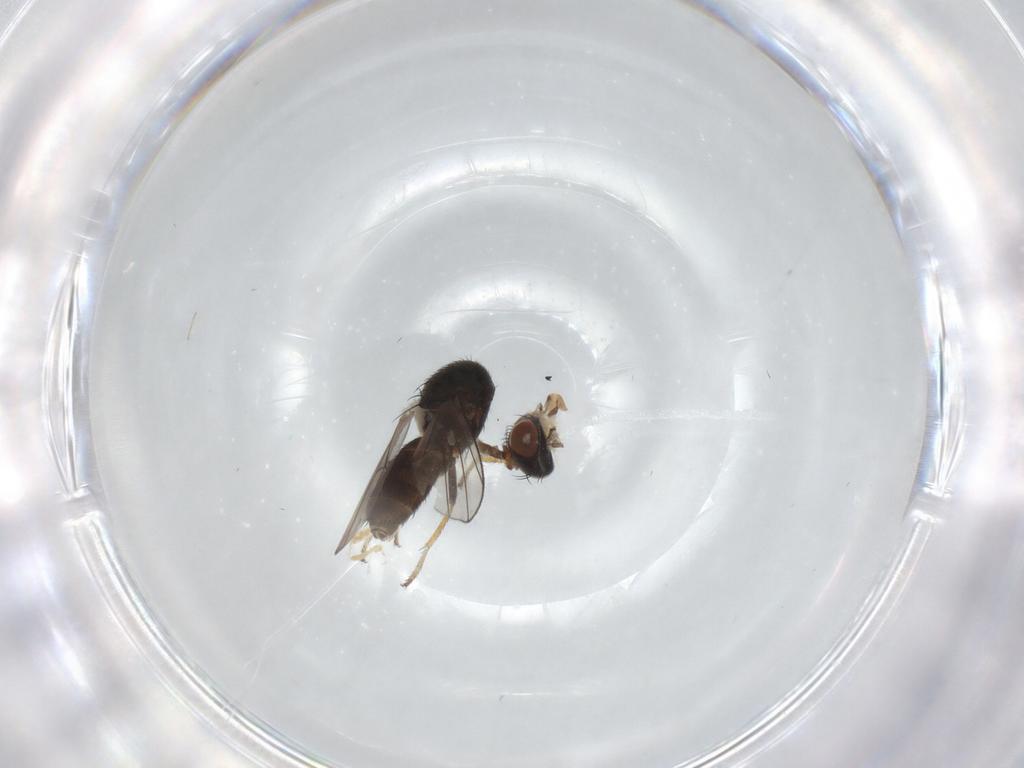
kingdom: Animalia
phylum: Arthropoda
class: Insecta
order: Diptera
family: Ephydridae
